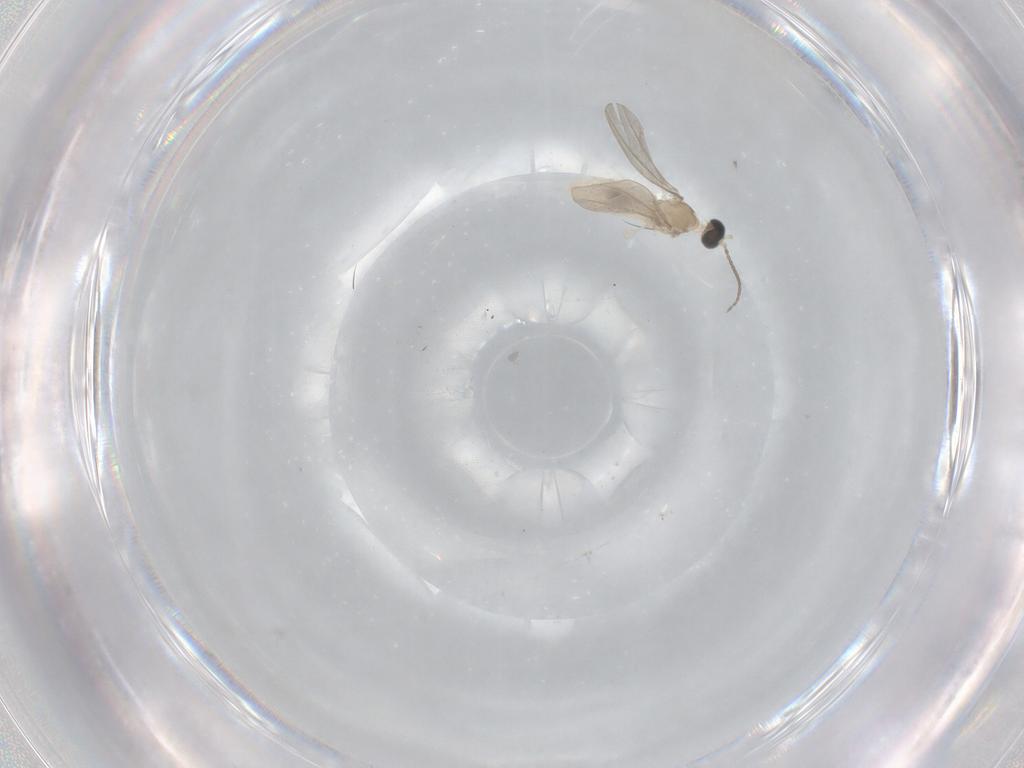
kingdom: Animalia
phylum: Arthropoda
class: Insecta
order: Diptera
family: Cecidomyiidae
